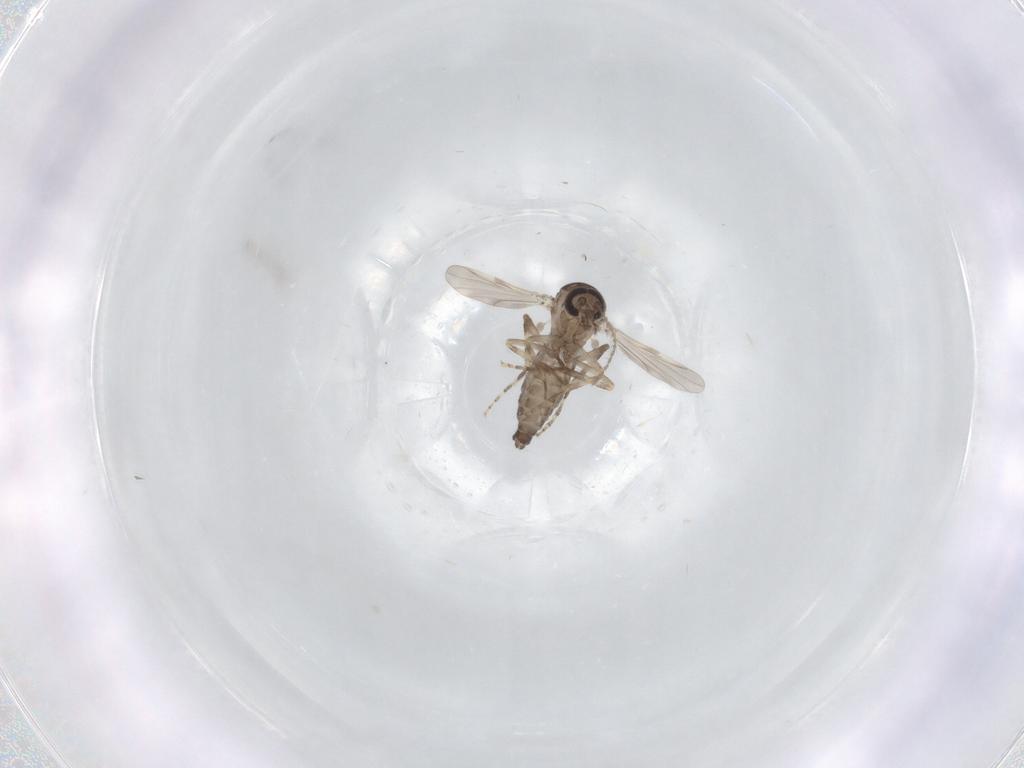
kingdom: Animalia
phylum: Arthropoda
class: Insecta
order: Diptera
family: Ceratopogonidae
